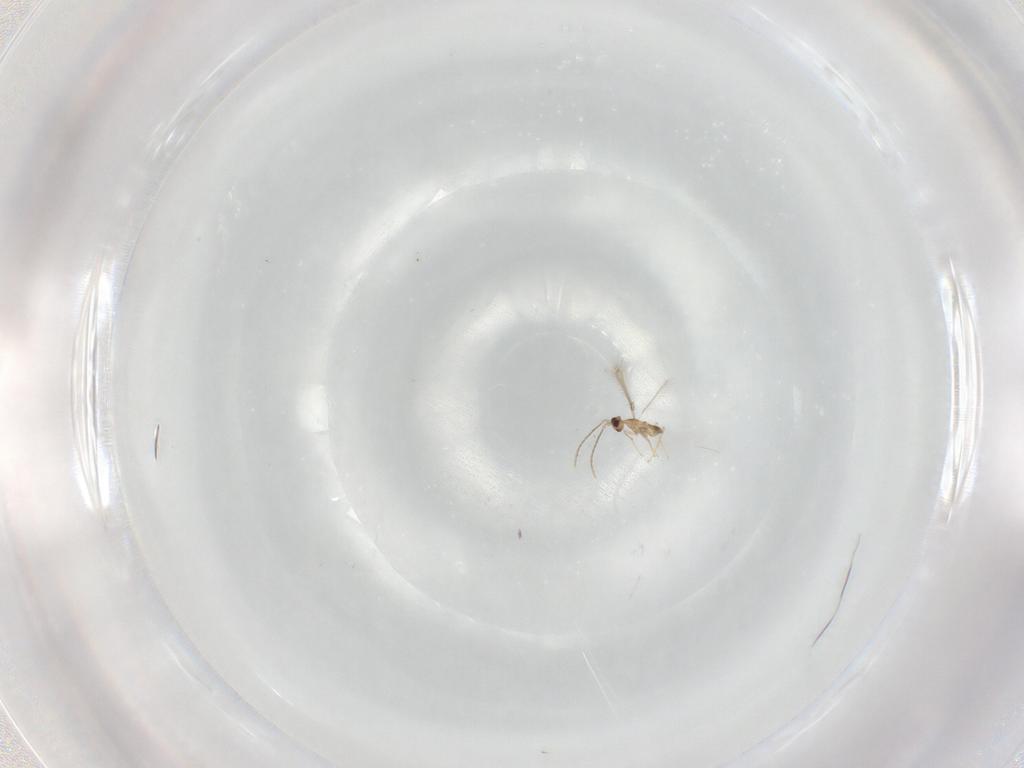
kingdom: Animalia
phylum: Arthropoda
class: Insecta
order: Hymenoptera
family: Mymaridae
